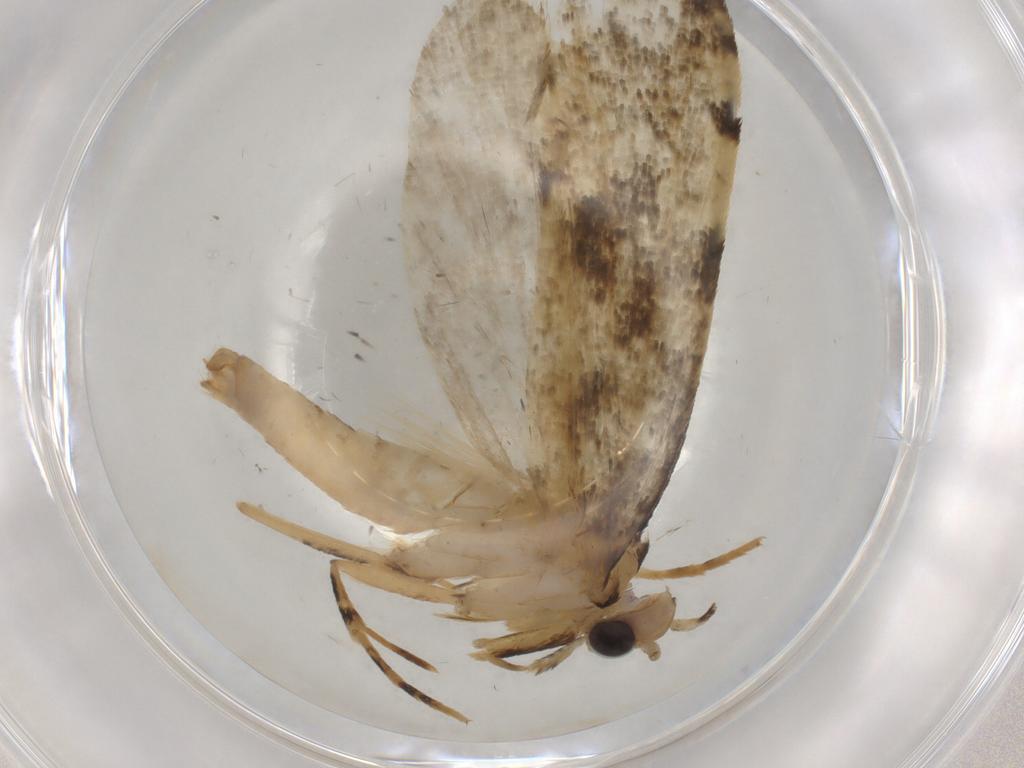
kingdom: Animalia
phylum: Arthropoda
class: Insecta
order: Lepidoptera
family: Tineidae
